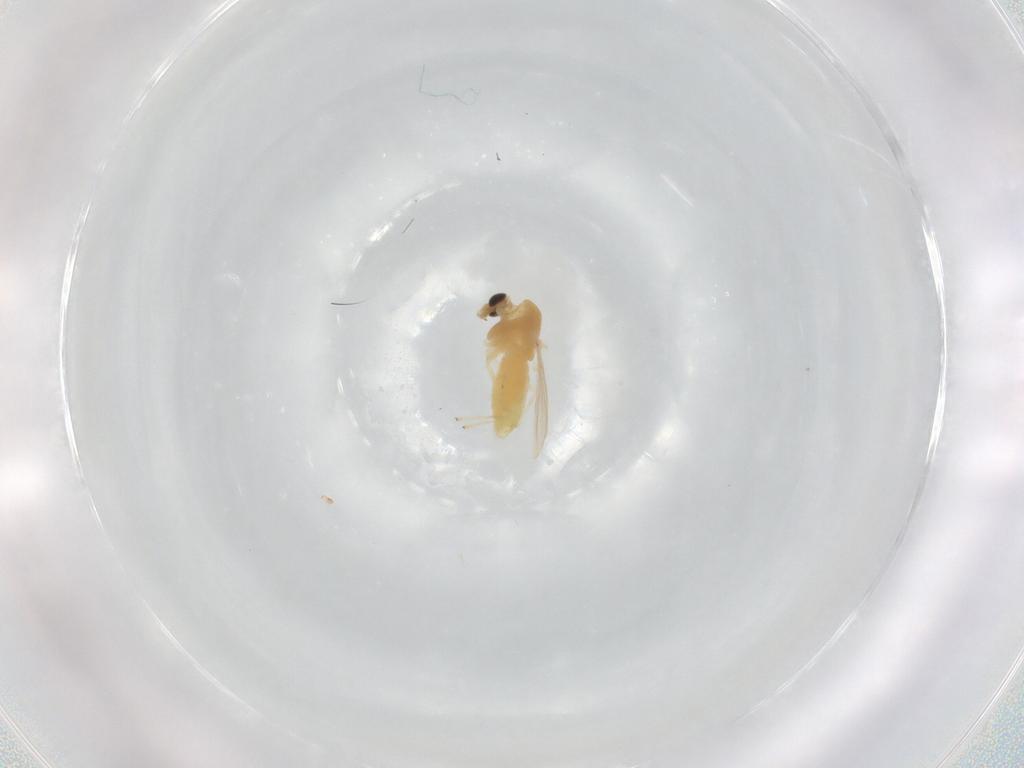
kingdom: Animalia
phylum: Arthropoda
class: Insecta
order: Diptera
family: Chironomidae
